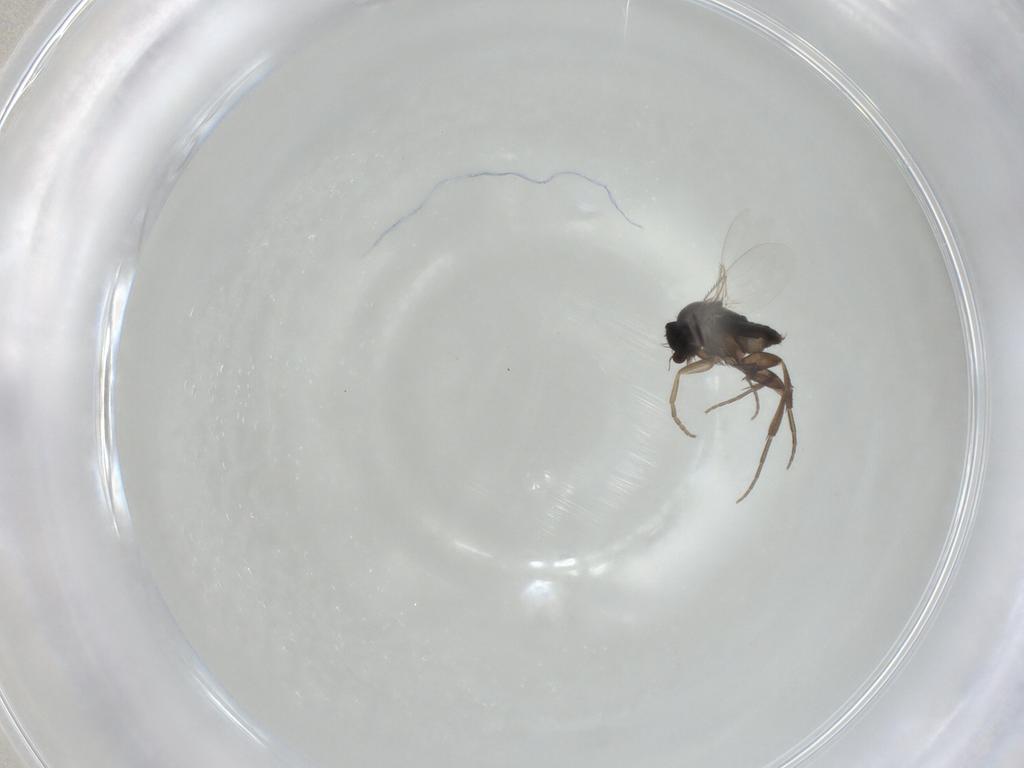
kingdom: Animalia
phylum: Arthropoda
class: Insecta
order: Diptera
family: Phoridae
